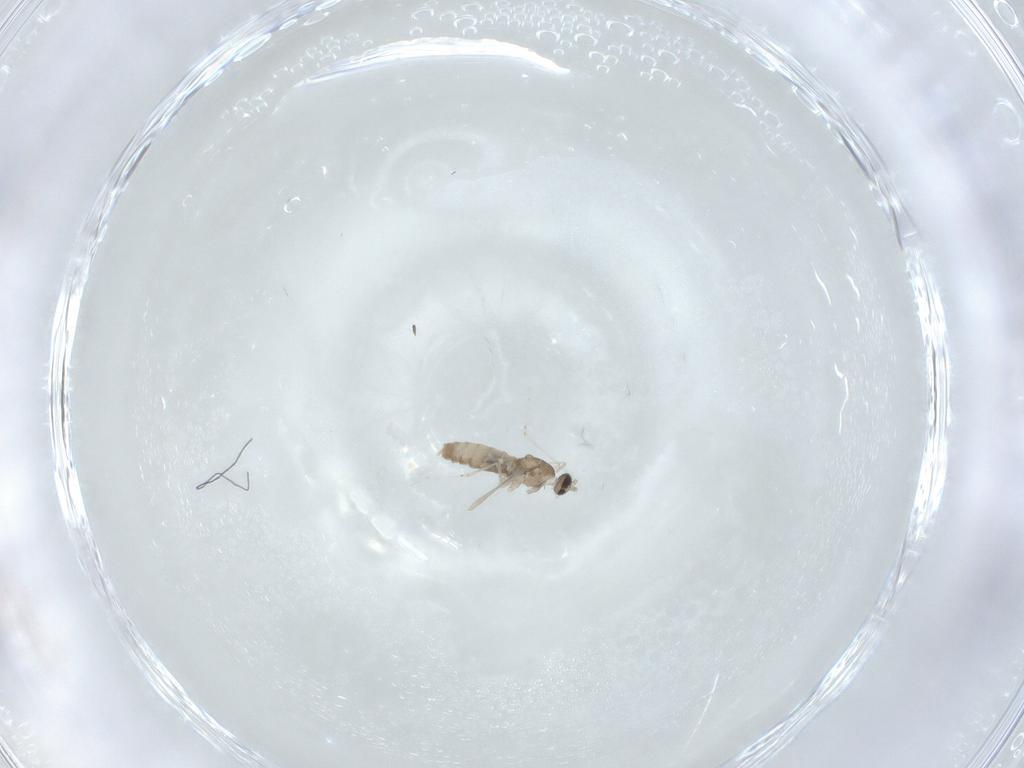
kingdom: Animalia
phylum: Arthropoda
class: Insecta
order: Diptera
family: Cecidomyiidae
